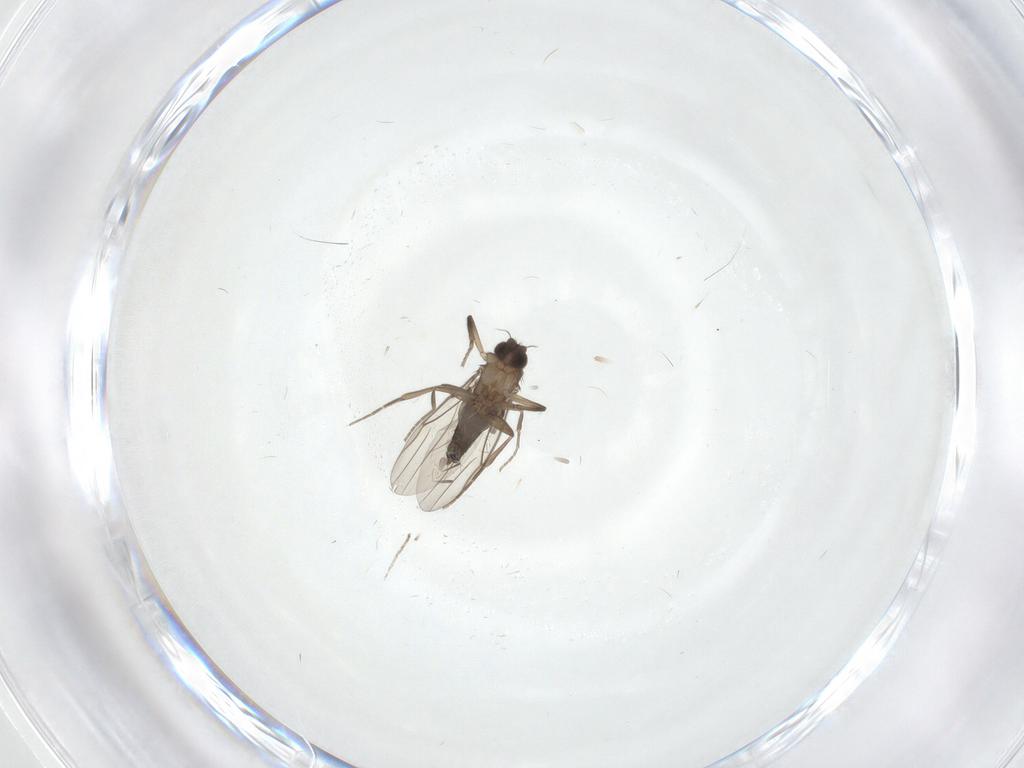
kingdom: Animalia
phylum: Arthropoda
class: Insecta
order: Diptera
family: Phoridae
